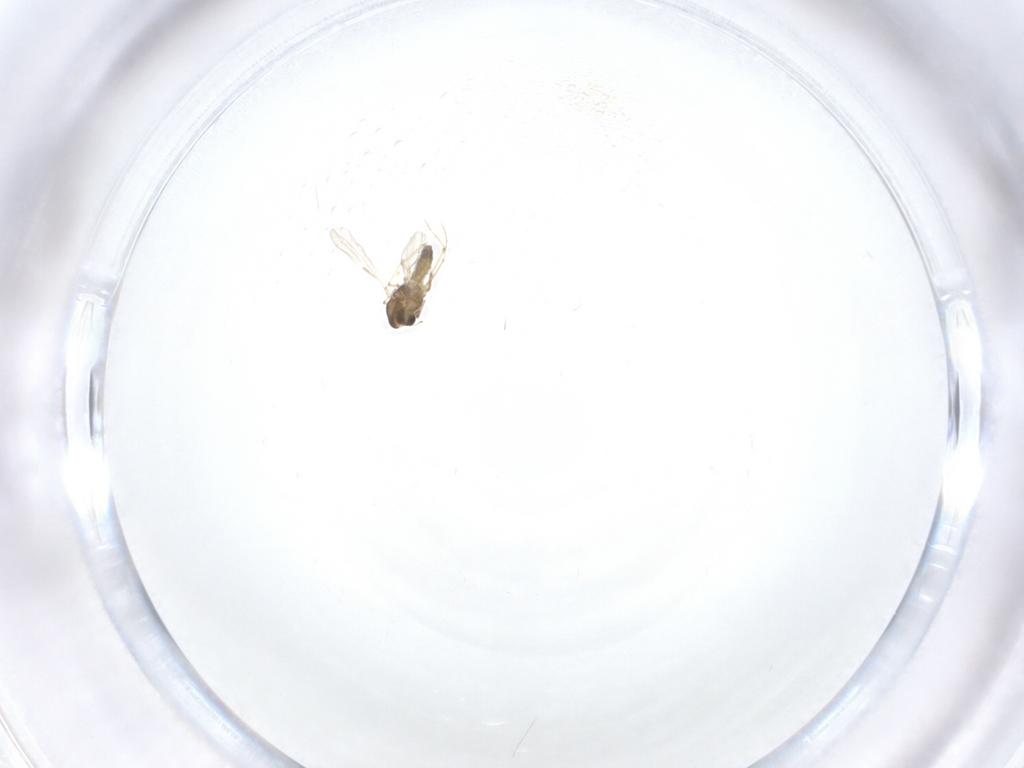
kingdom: Animalia
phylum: Arthropoda
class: Insecta
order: Diptera
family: Chironomidae
